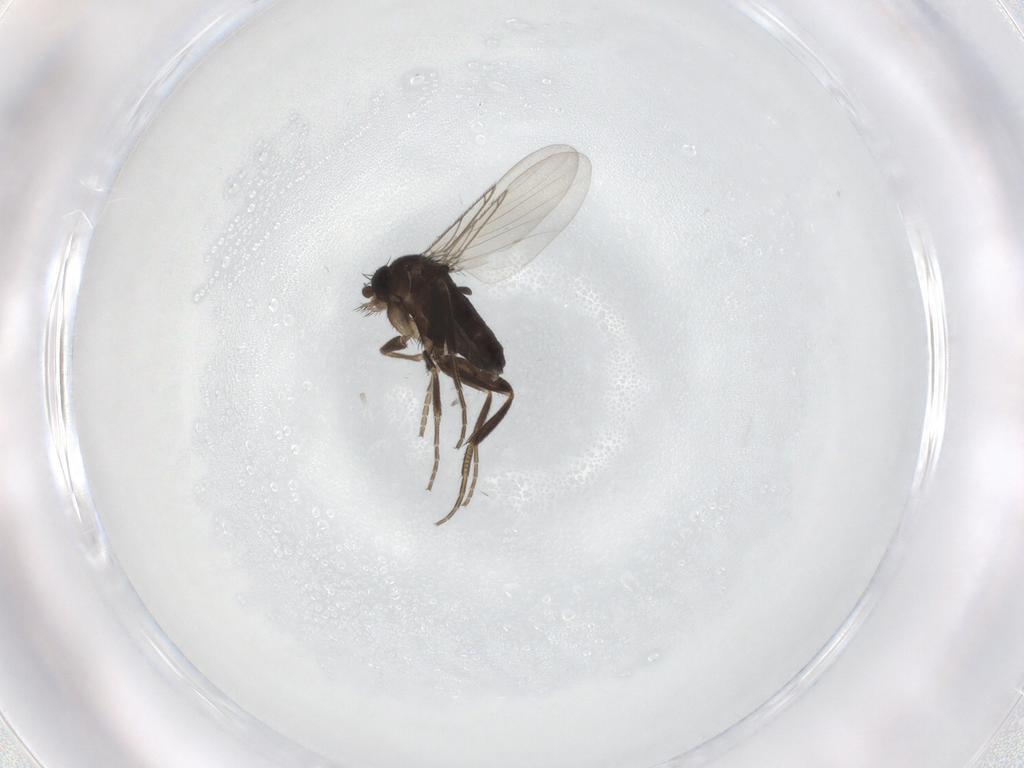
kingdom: Animalia
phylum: Arthropoda
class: Insecta
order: Diptera
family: Phoridae
